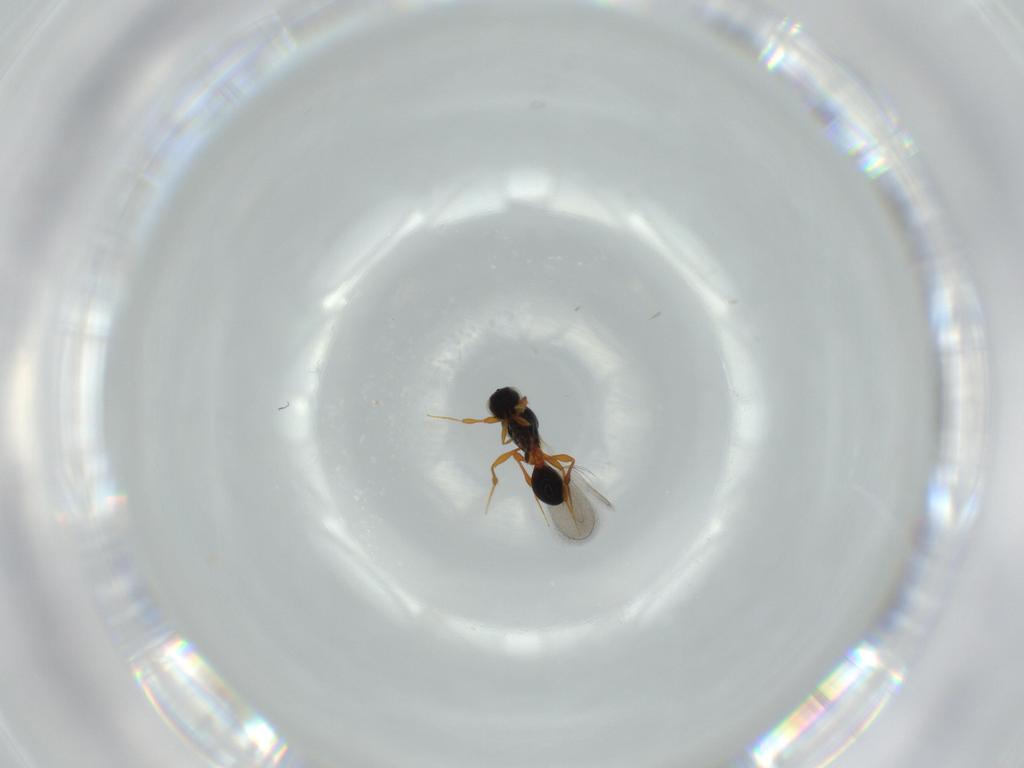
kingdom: Animalia
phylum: Arthropoda
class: Insecta
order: Hymenoptera
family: Platygastridae
